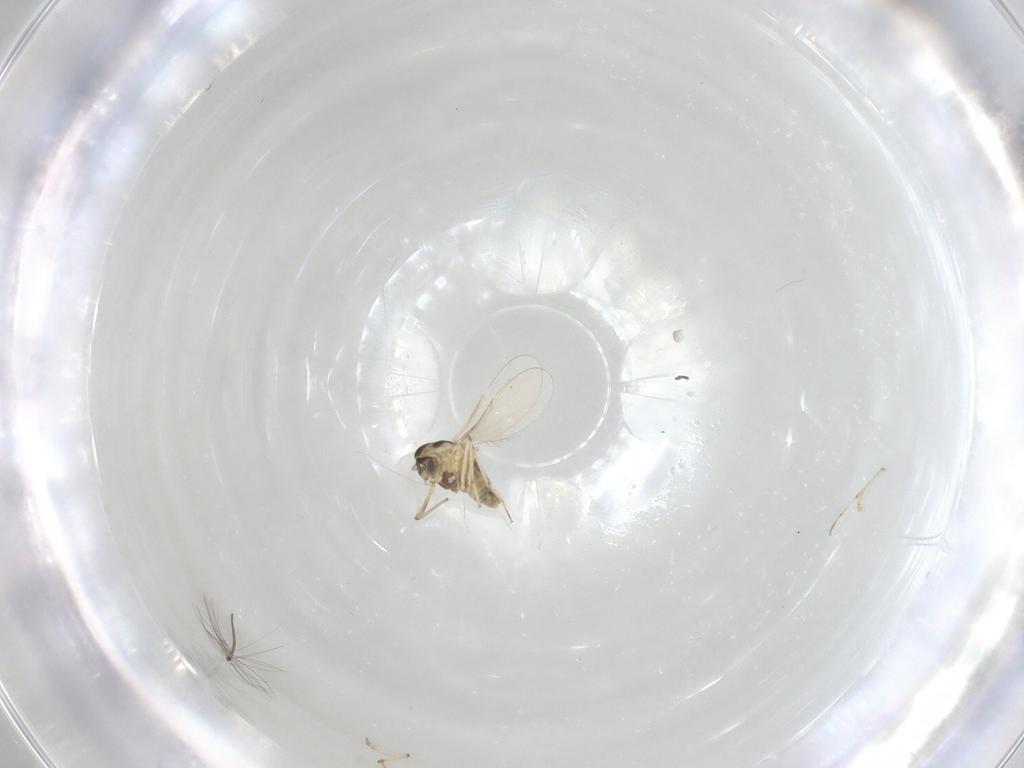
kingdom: Animalia
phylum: Arthropoda
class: Insecta
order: Diptera
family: Chironomidae
